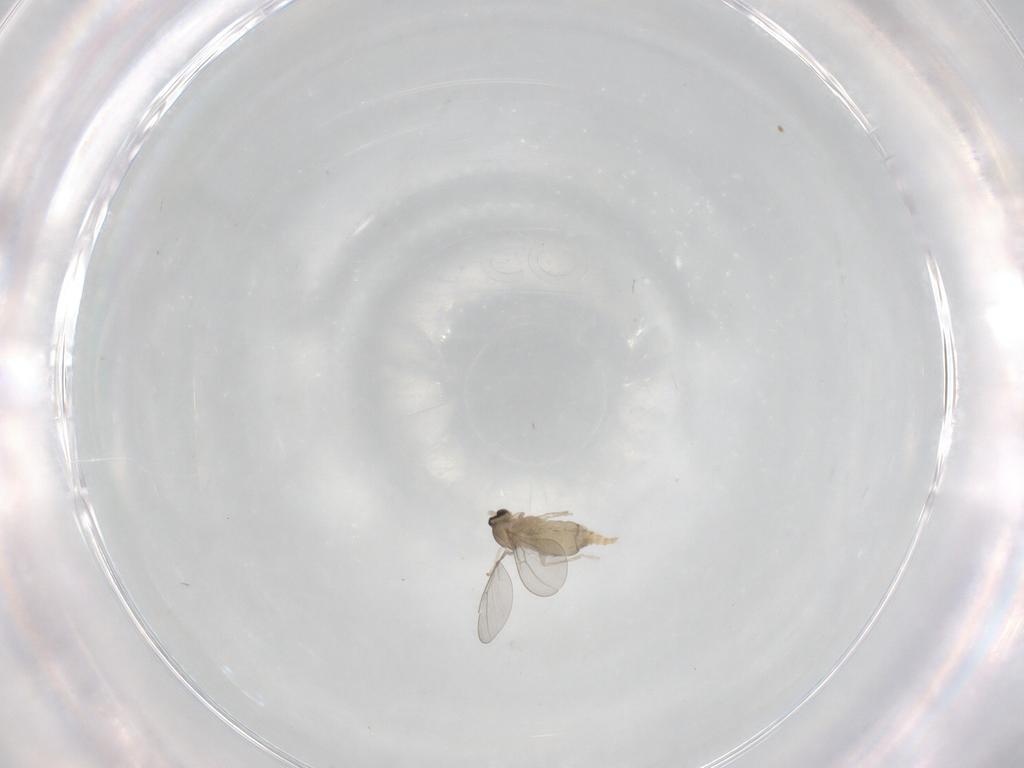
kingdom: Animalia
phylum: Arthropoda
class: Insecta
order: Diptera
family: Cecidomyiidae
